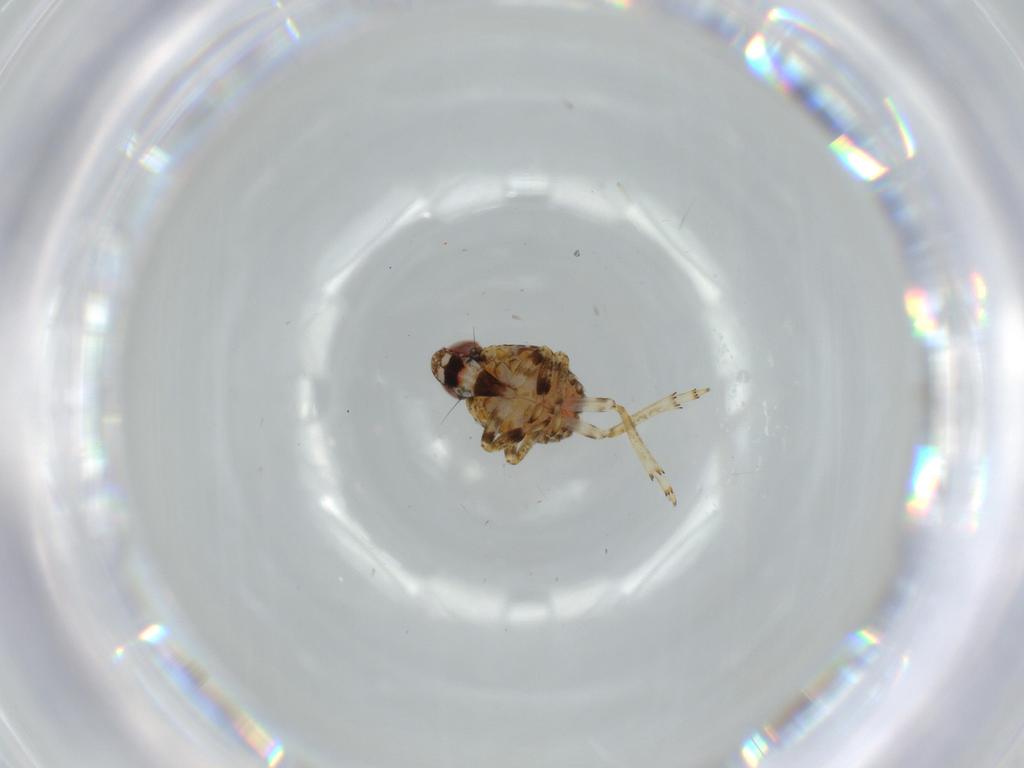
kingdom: Animalia
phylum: Arthropoda
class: Insecta
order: Hemiptera
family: Issidae
